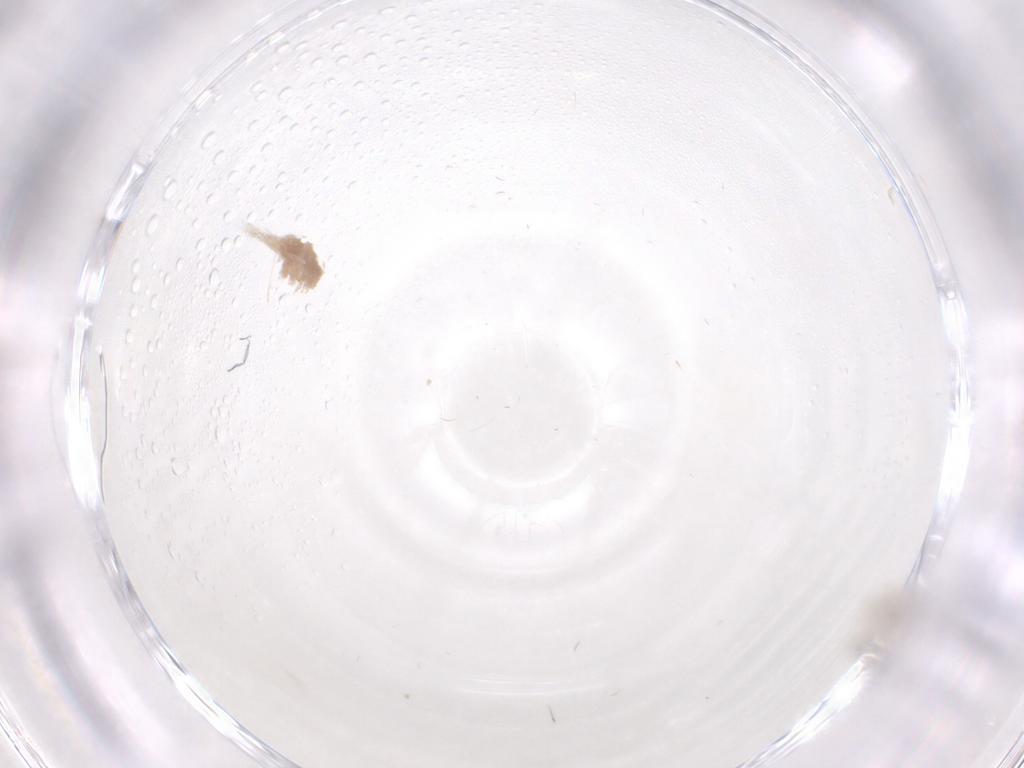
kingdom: Animalia
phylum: Arthropoda
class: Insecta
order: Diptera
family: Cecidomyiidae
